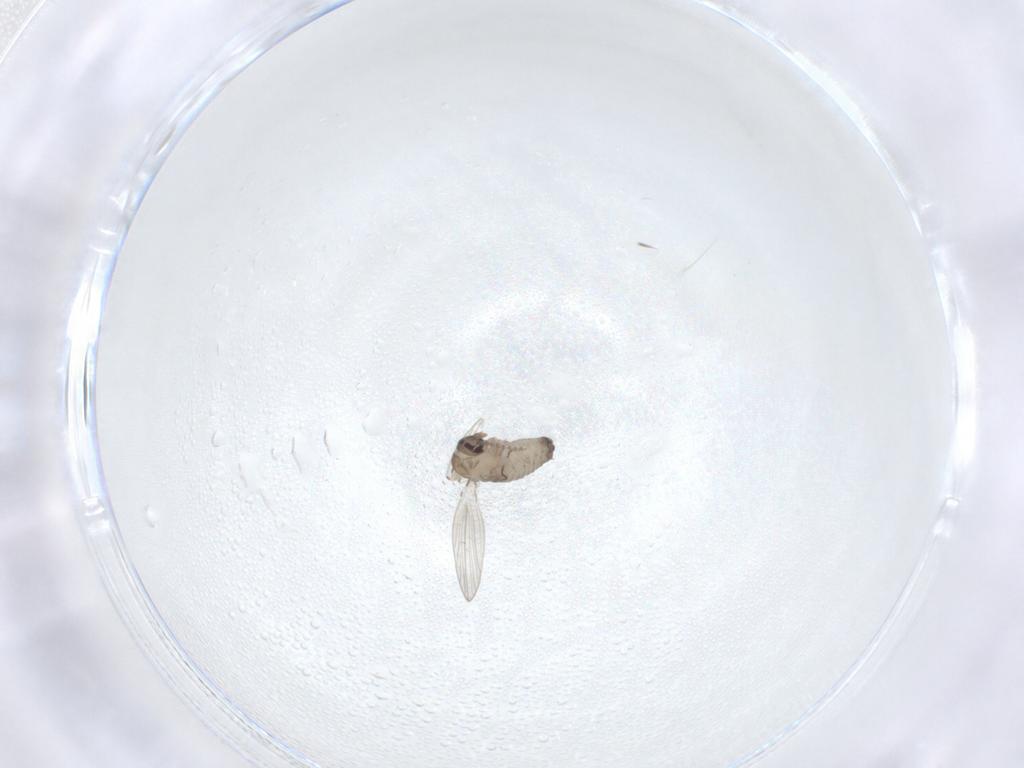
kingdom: Animalia
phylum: Arthropoda
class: Insecta
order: Diptera
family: Psychodidae
